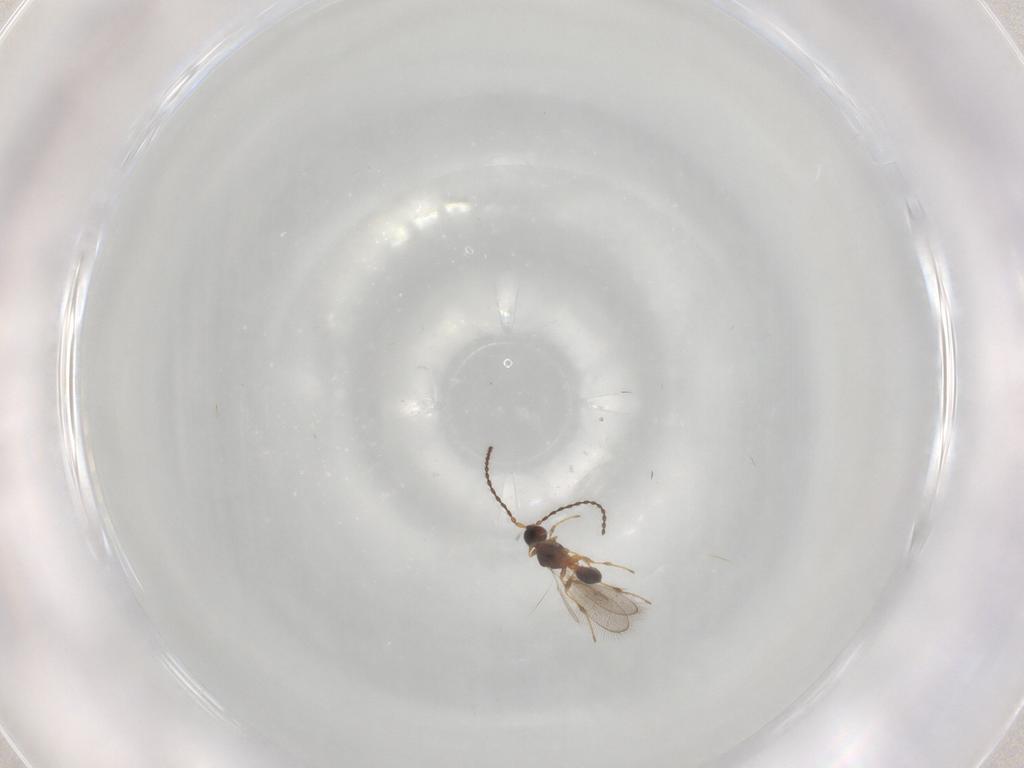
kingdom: Animalia
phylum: Arthropoda
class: Insecta
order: Hymenoptera
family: Diapriidae
